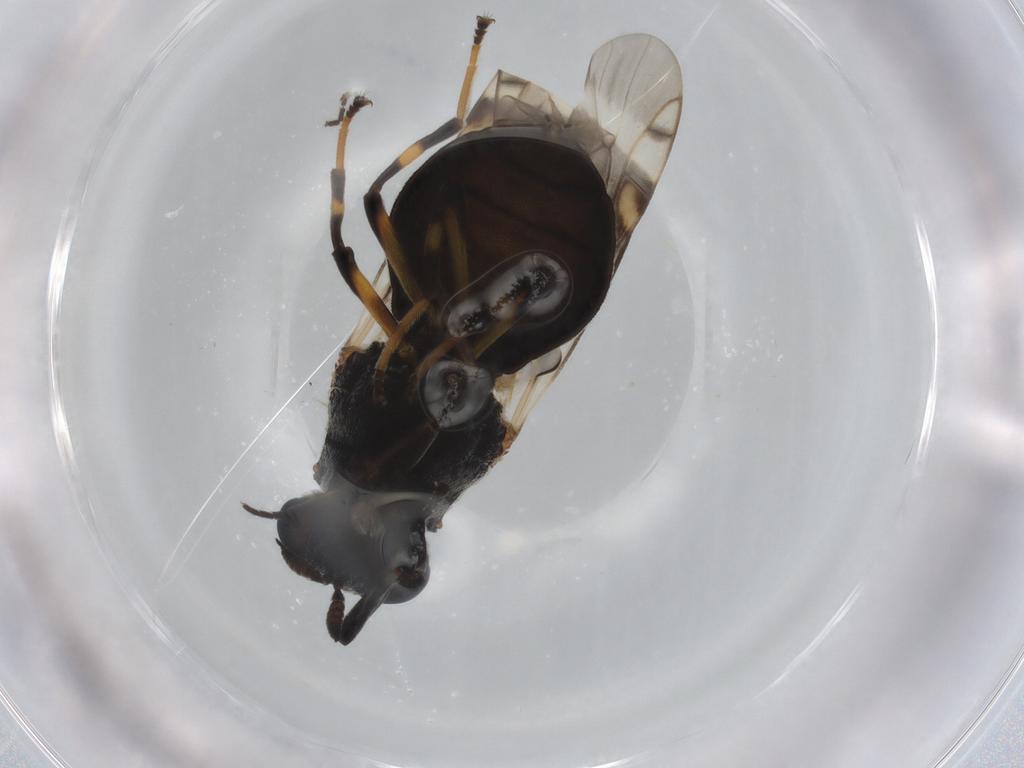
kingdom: Animalia
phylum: Arthropoda
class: Insecta
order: Diptera
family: Stratiomyidae
